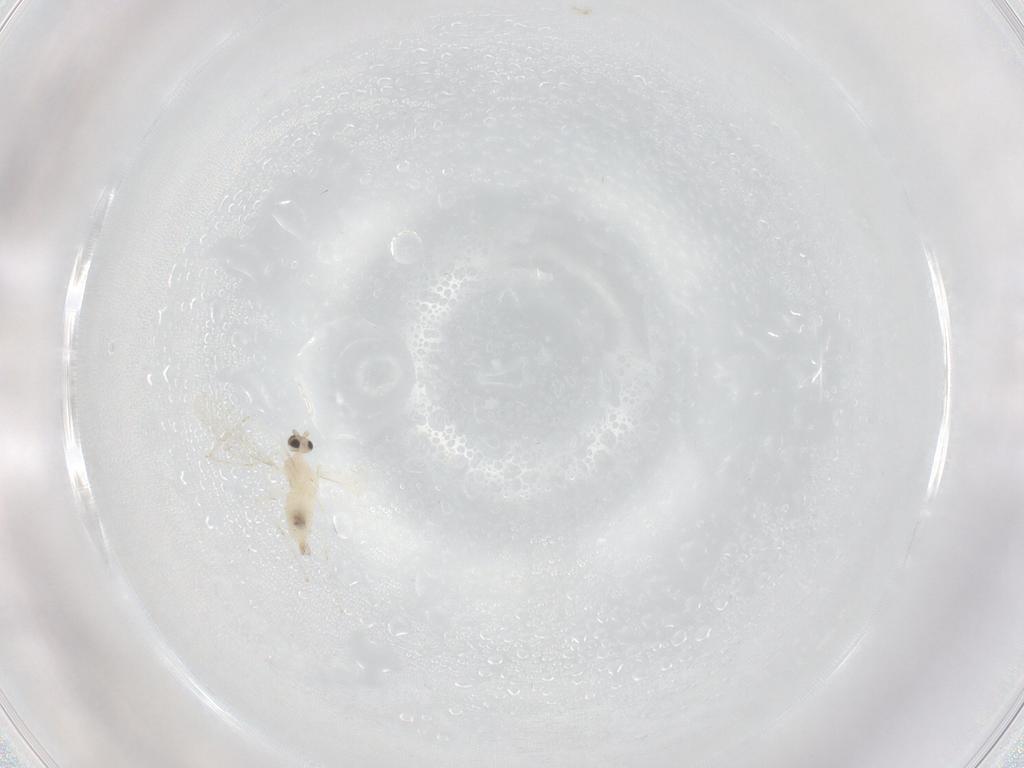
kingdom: Animalia
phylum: Arthropoda
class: Insecta
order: Diptera
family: Cecidomyiidae
